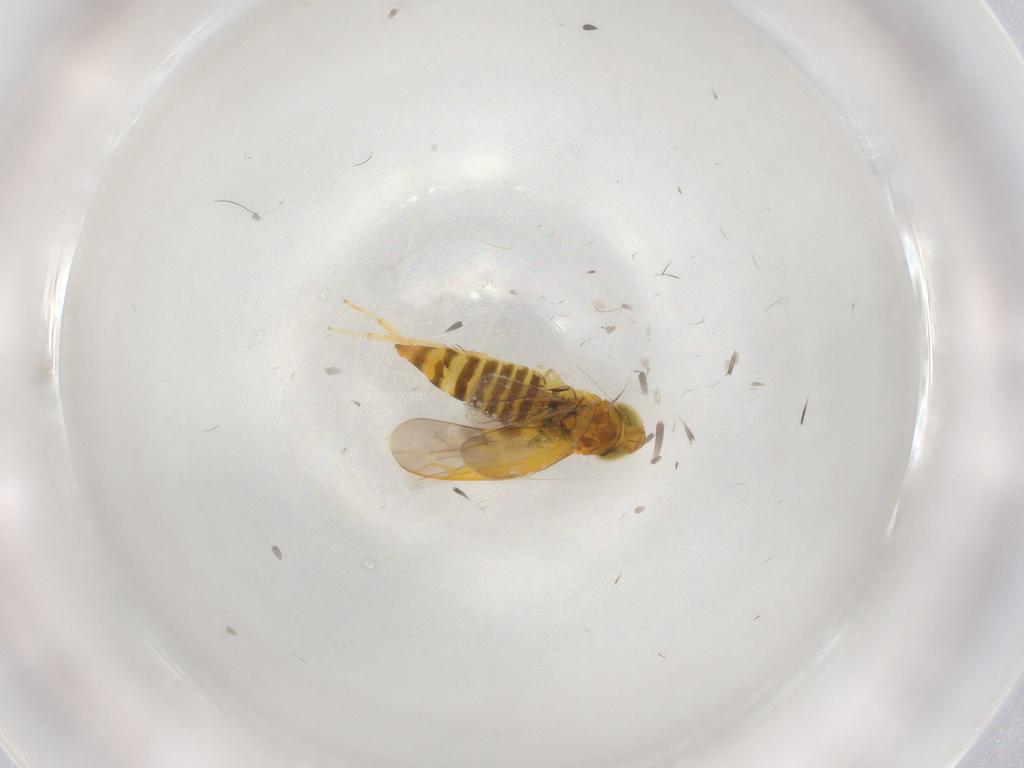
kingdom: Animalia
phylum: Arthropoda
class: Insecta
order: Hemiptera
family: Cicadellidae
